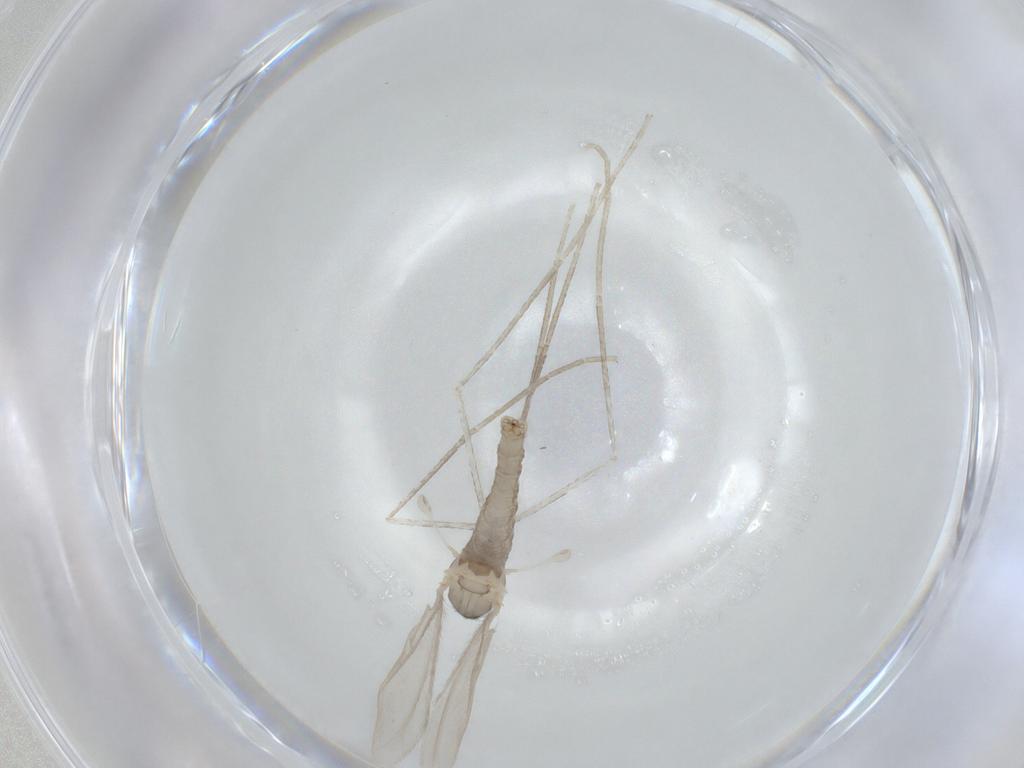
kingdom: Animalia
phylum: Arthropoda
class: Insecta
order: Diptera
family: Cecidomyiidae
